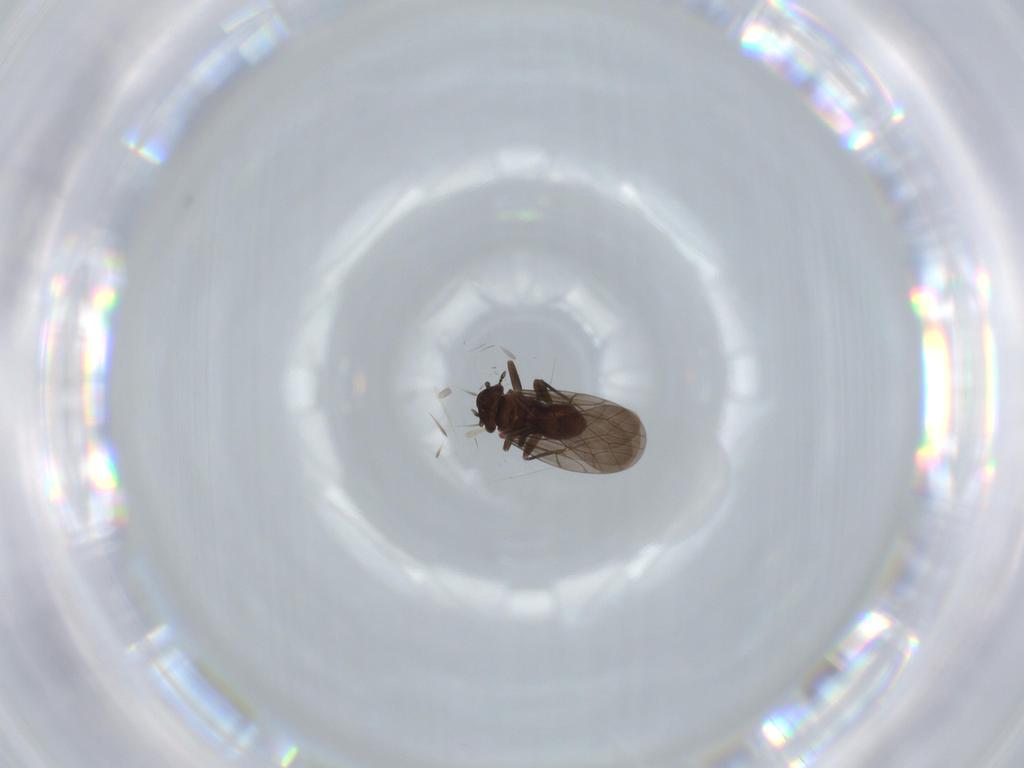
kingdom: Animalia
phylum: Arthropoda
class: Insecta
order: Psocodea
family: Lepidopsocidae
